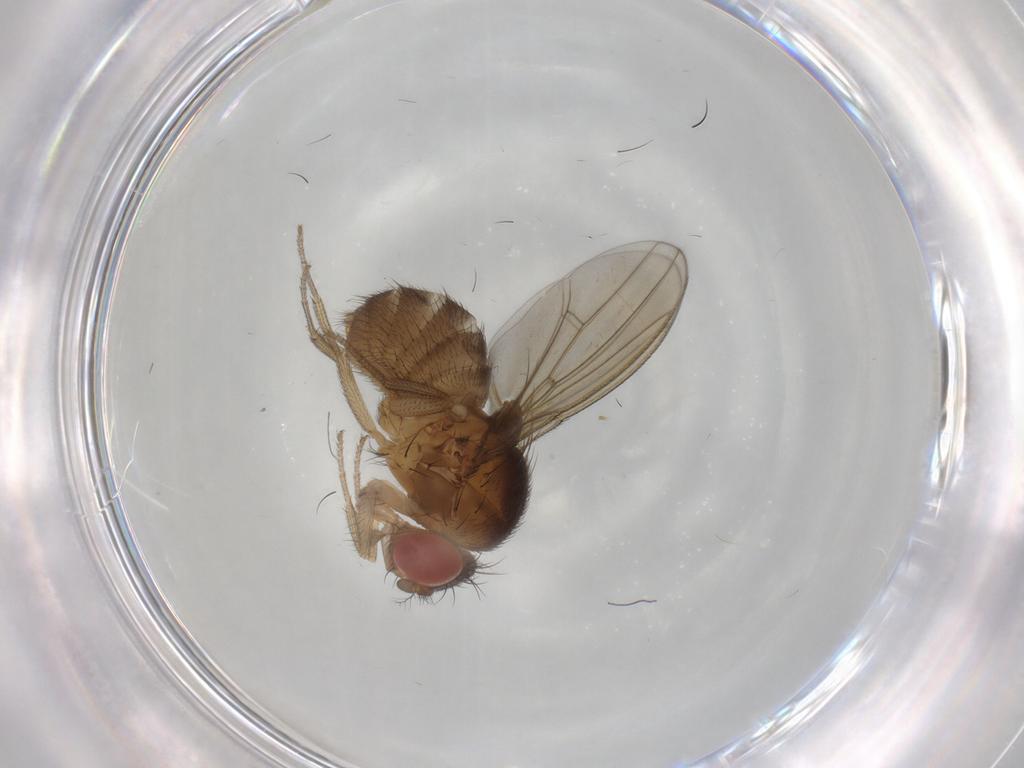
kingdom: Animalia
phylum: Arthropoda
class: Insecta
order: Diptera
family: Drosophilidae
